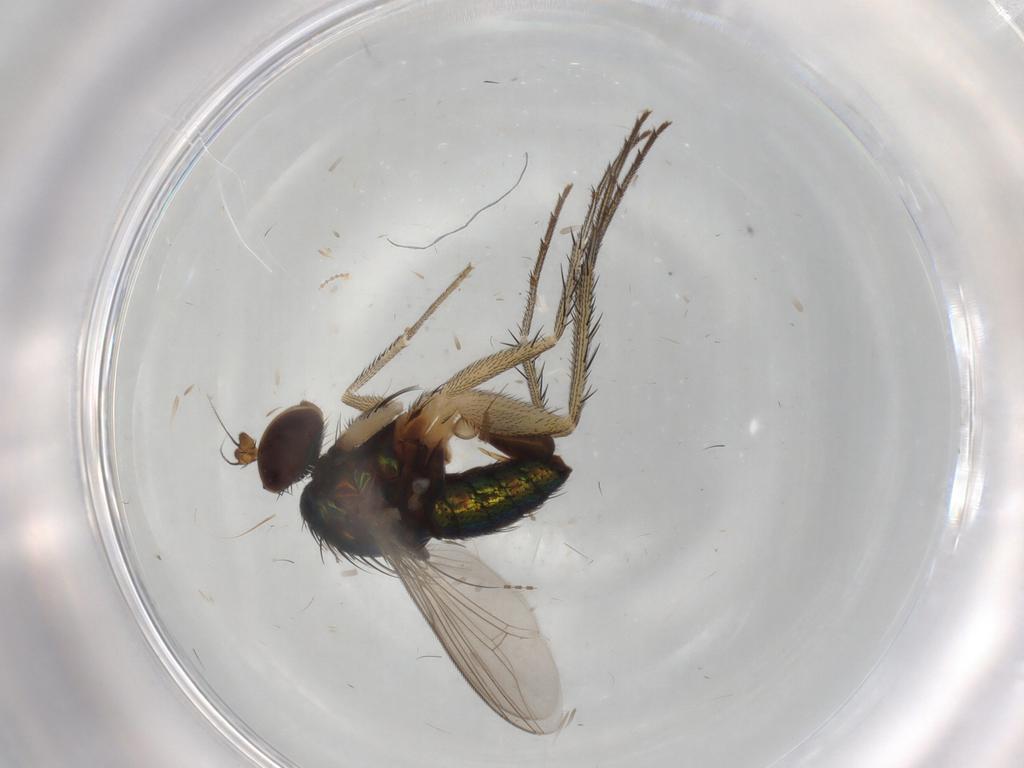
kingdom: Animalia
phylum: Arthropoda
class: Insecta
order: Diptera
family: Dolichopodidae
